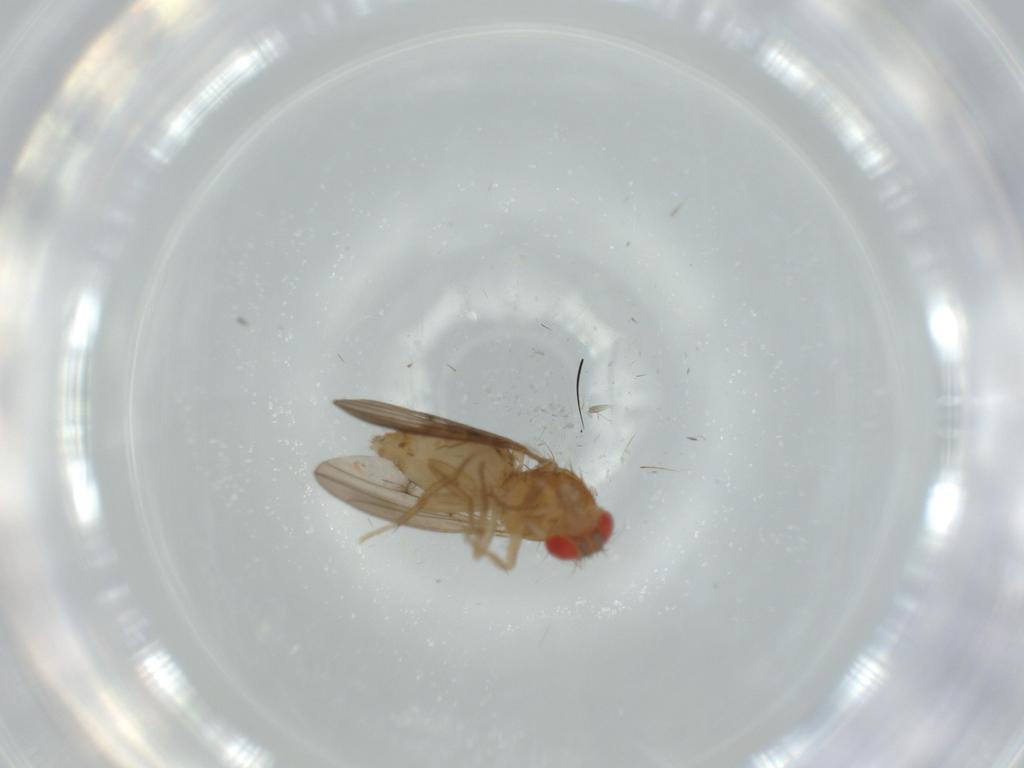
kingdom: Animalia
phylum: Arthropoda
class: Insecta
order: Diptera
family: Drosophilidae
